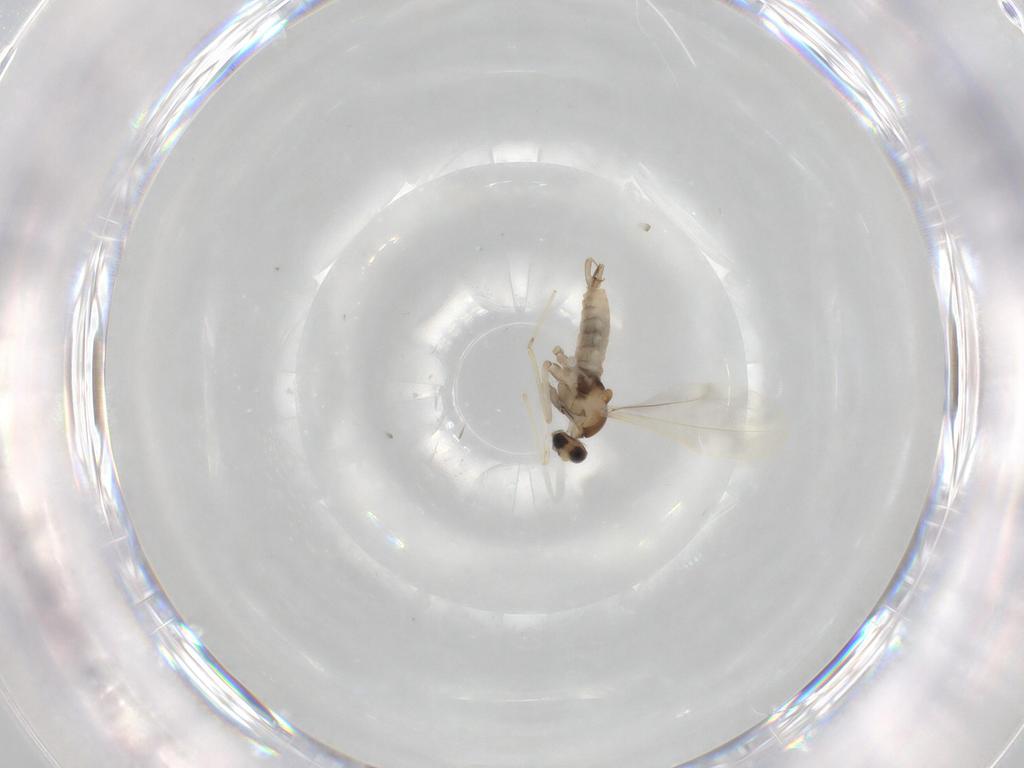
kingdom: Animalia
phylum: Arthropoda
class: Insecta
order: Diptera
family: Cecidomyiidae
